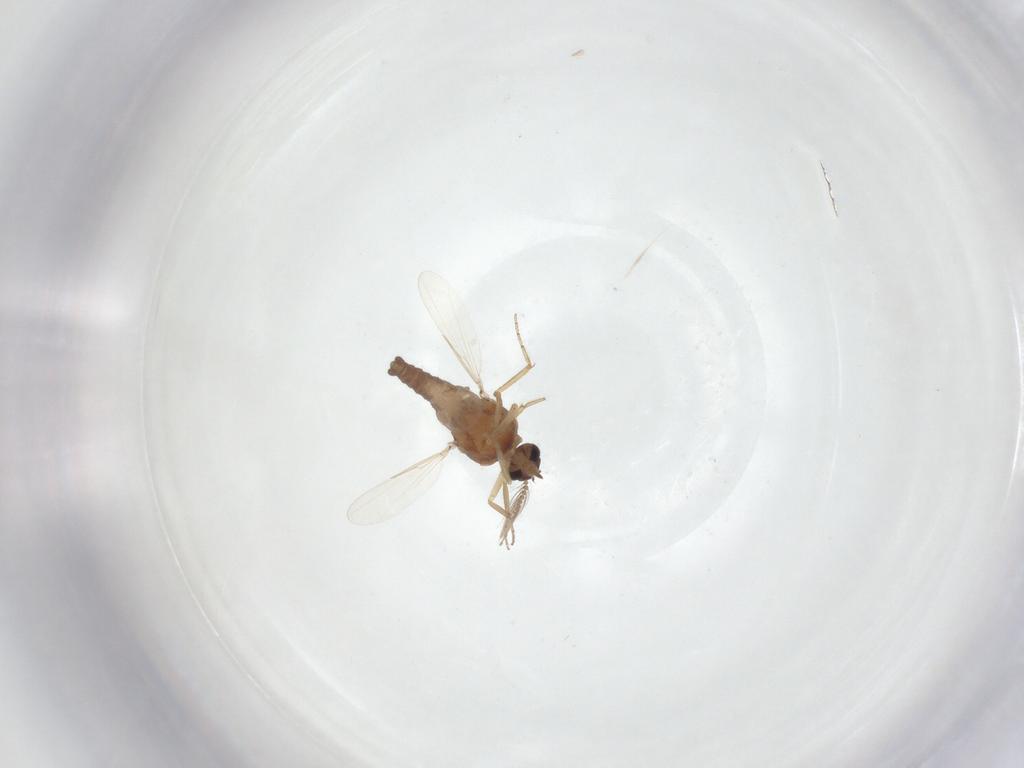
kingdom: Animalia
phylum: Arthropoda
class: Insecta
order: Diptera
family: Ceratopogonidae
